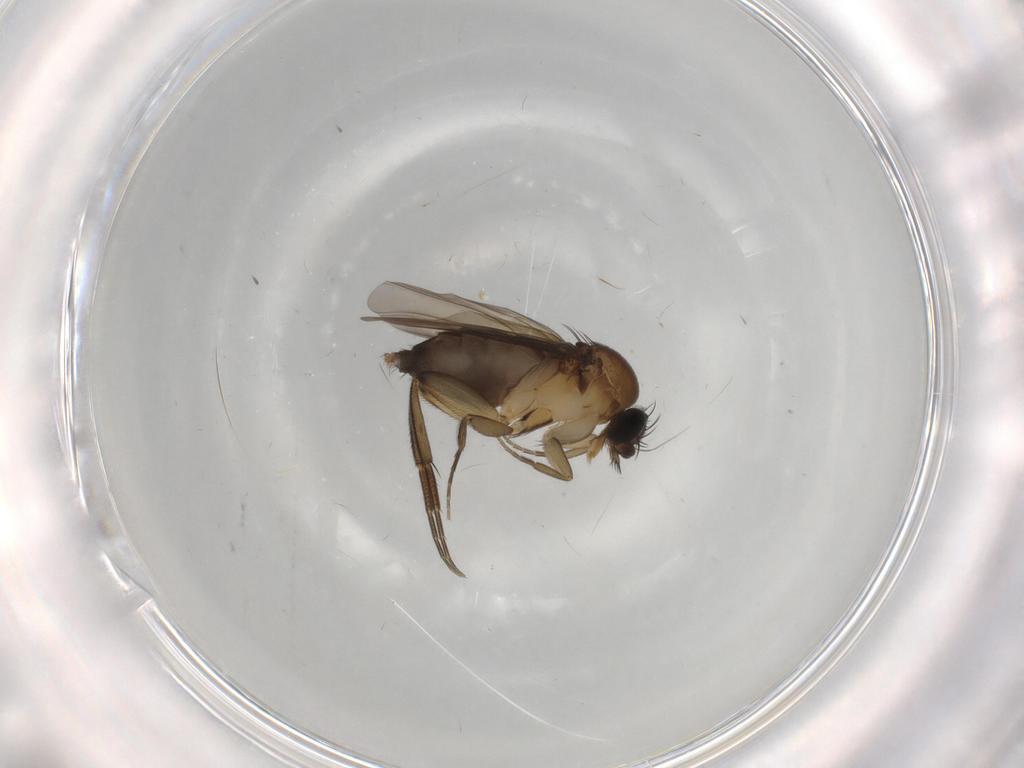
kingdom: Animalia
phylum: Arthropoda
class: Insecta
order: Diptera
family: Phoridae
